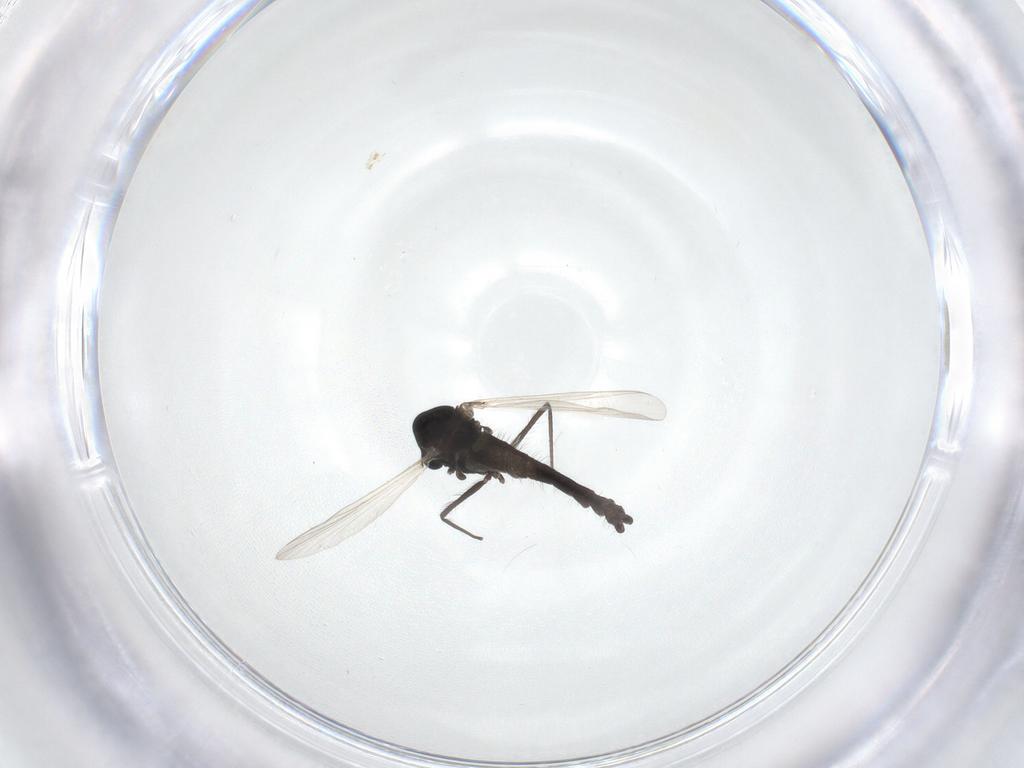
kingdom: Animalia
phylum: Arthropoda
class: Insecta
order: Diptera
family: Chironomidae
